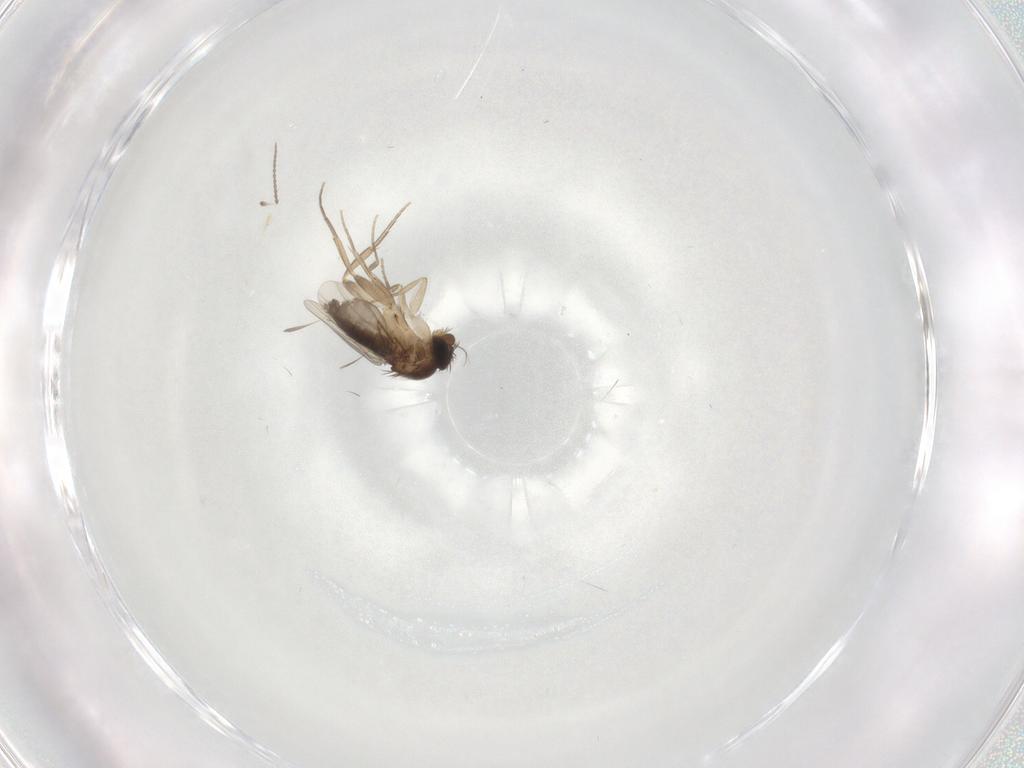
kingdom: Animalia
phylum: Arthropoda
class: Insecta
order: Diptera
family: Phoridae
